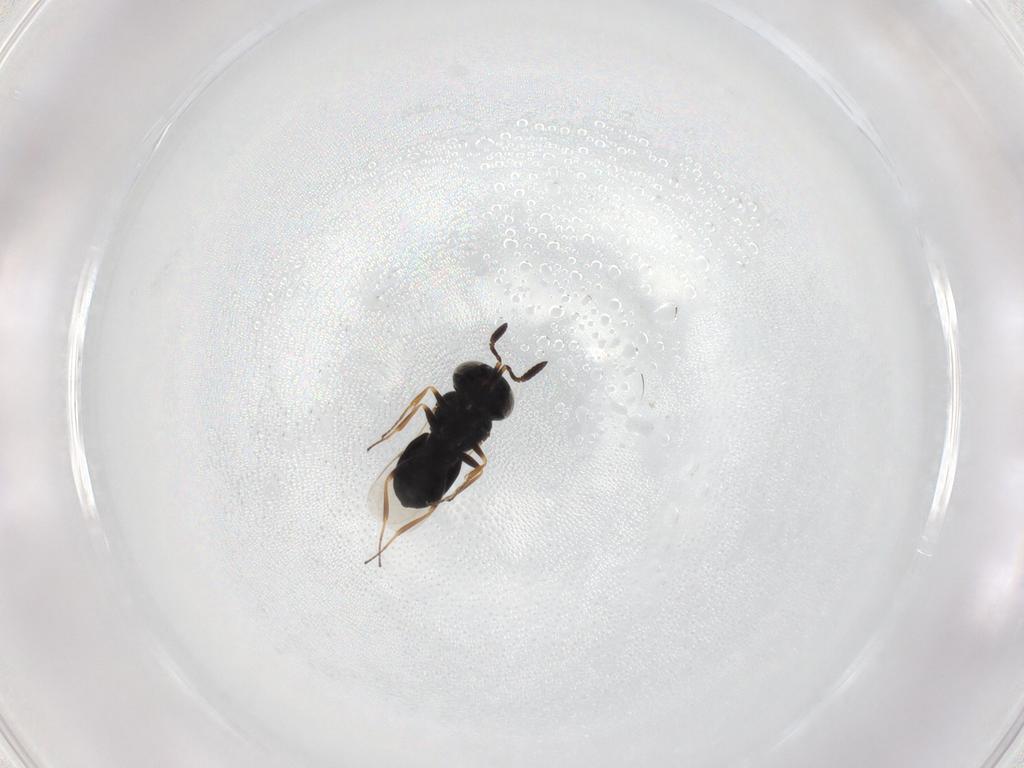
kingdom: Animalia
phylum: Arthropoda
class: Insecta
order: Hymenoptera
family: Scelionidae
